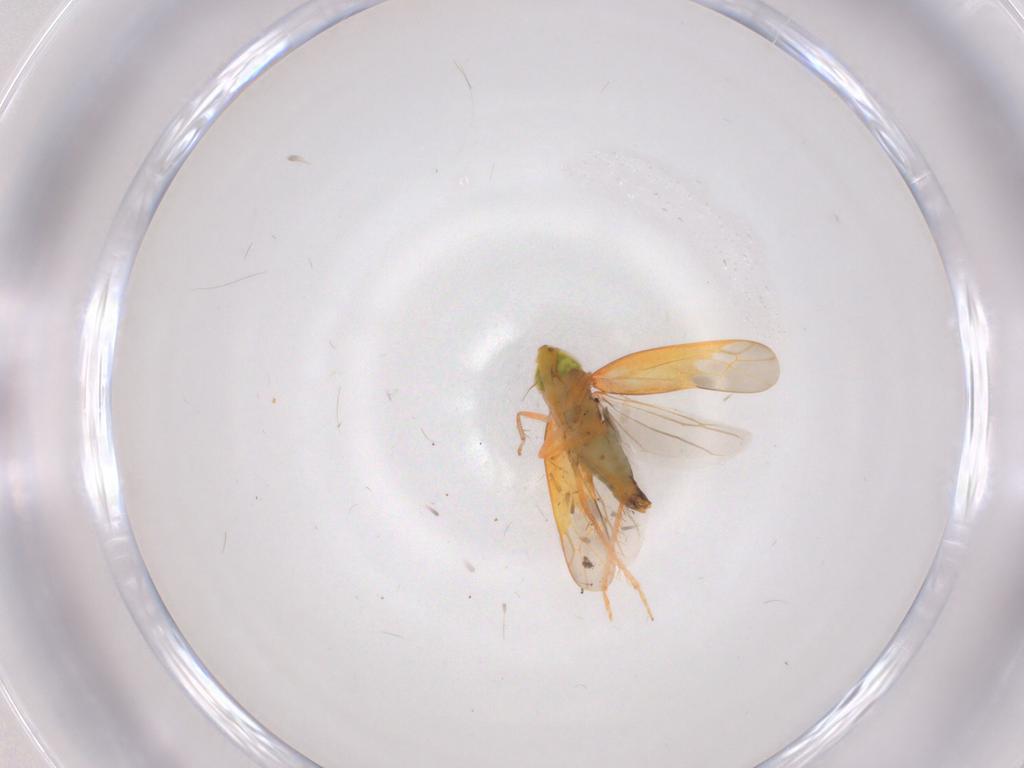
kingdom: Animalia
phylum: Arthropoda
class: Insecta
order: Hemiptera
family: Cicadellidae
